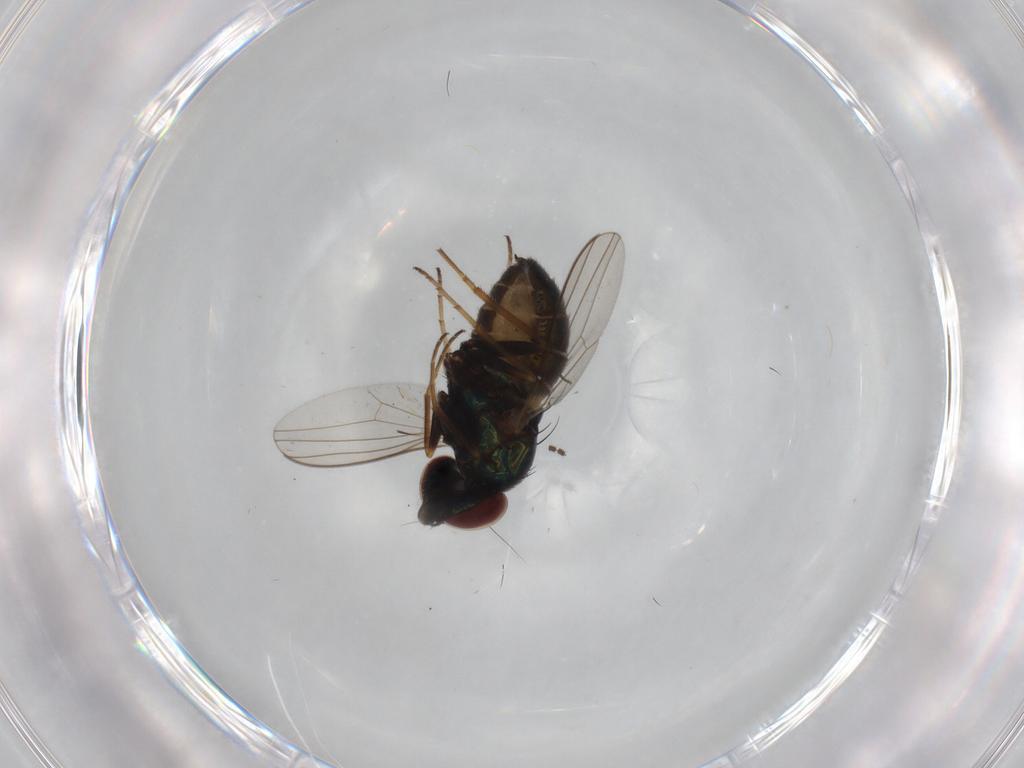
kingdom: Animalia
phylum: Arthropoda
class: Insecta
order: Diptera
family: Dolichopodidae
